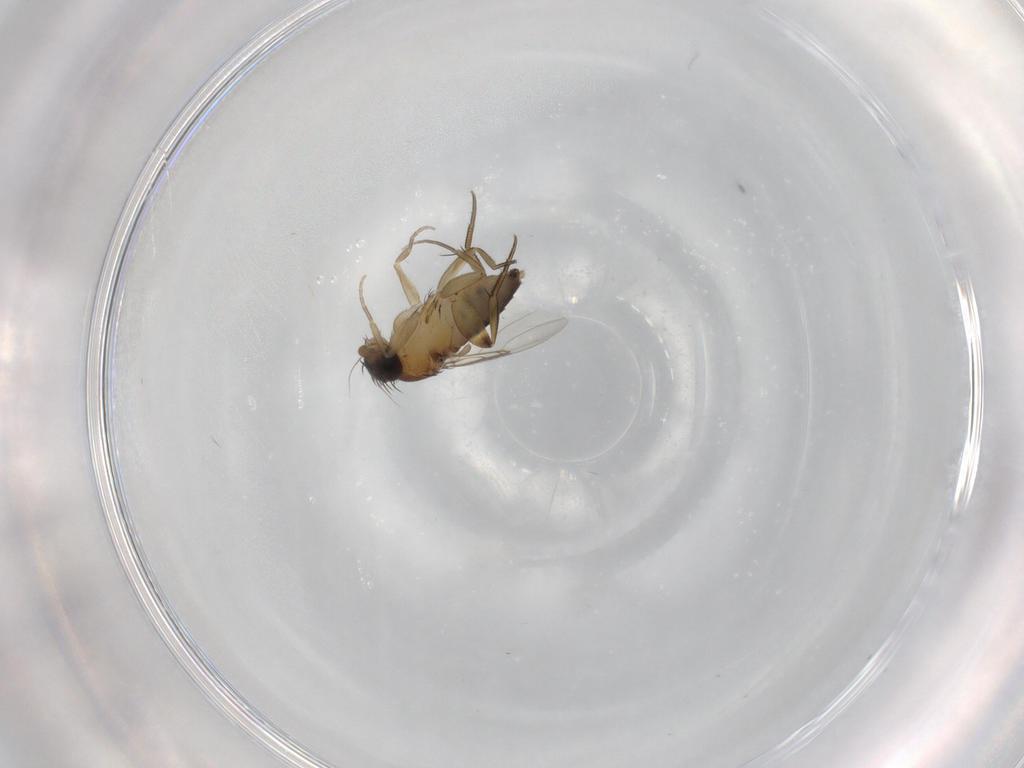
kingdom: Animalia
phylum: Arthropoda
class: Insecta
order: Diptera
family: Phoridae
